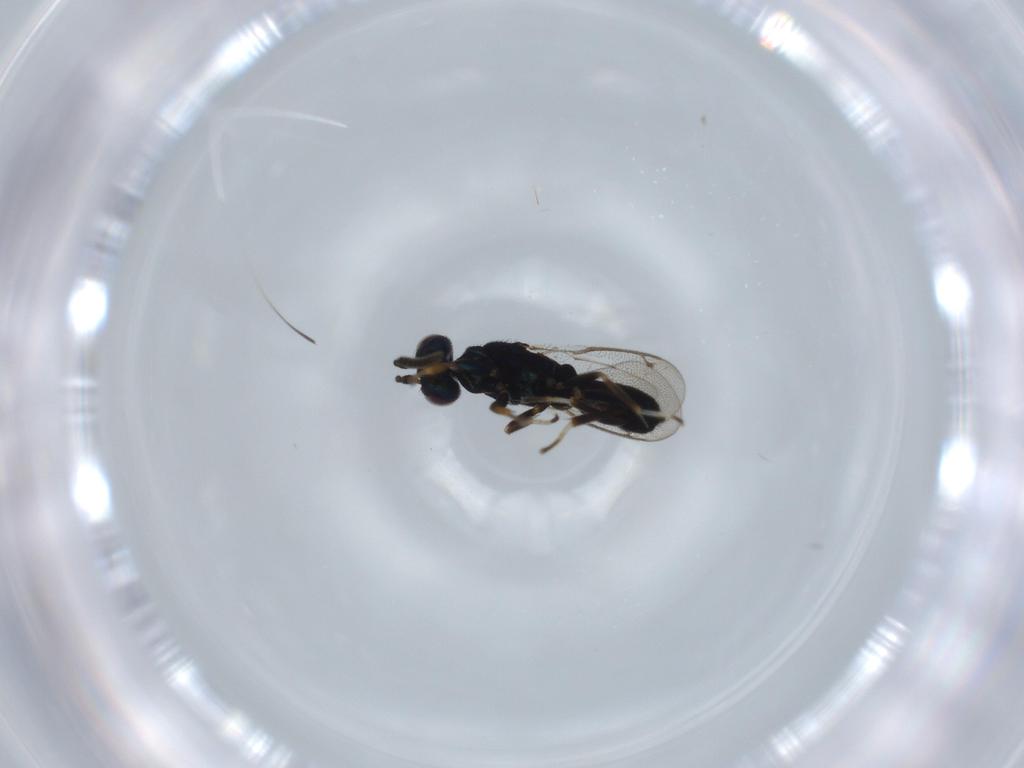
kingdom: Animalia
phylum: Arthropoda
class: Insecta
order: Hymenoptera
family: Eupelmidae
